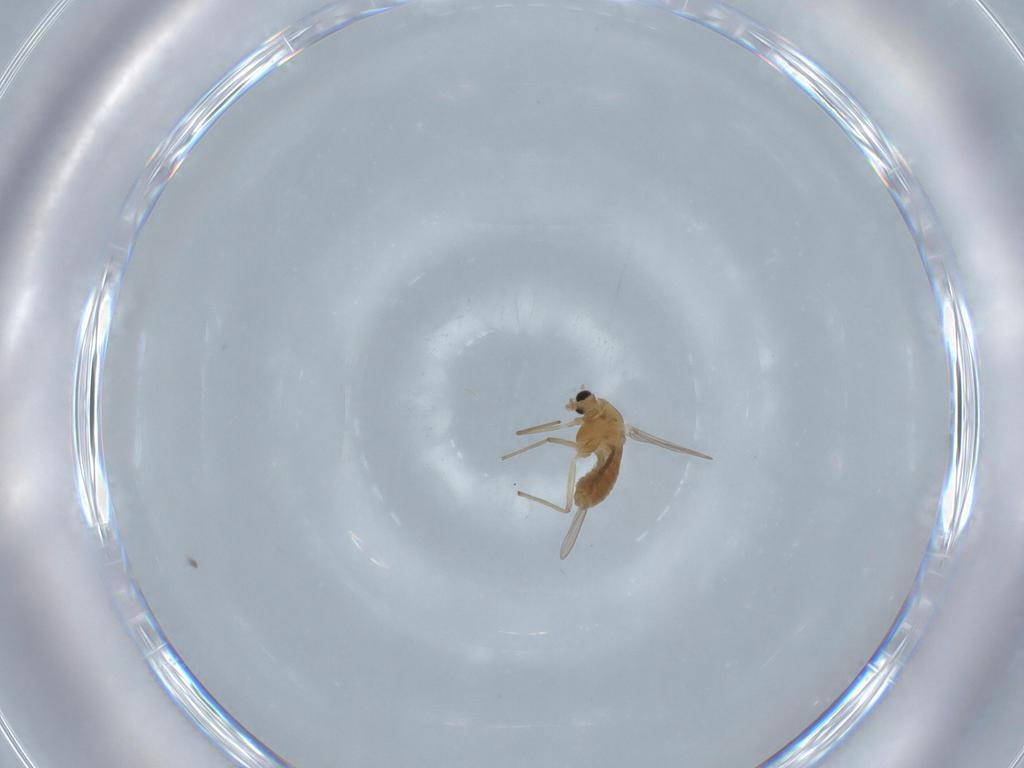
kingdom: Animalia
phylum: Arthropoda
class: Insecta
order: Diptera
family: Chironomidae
